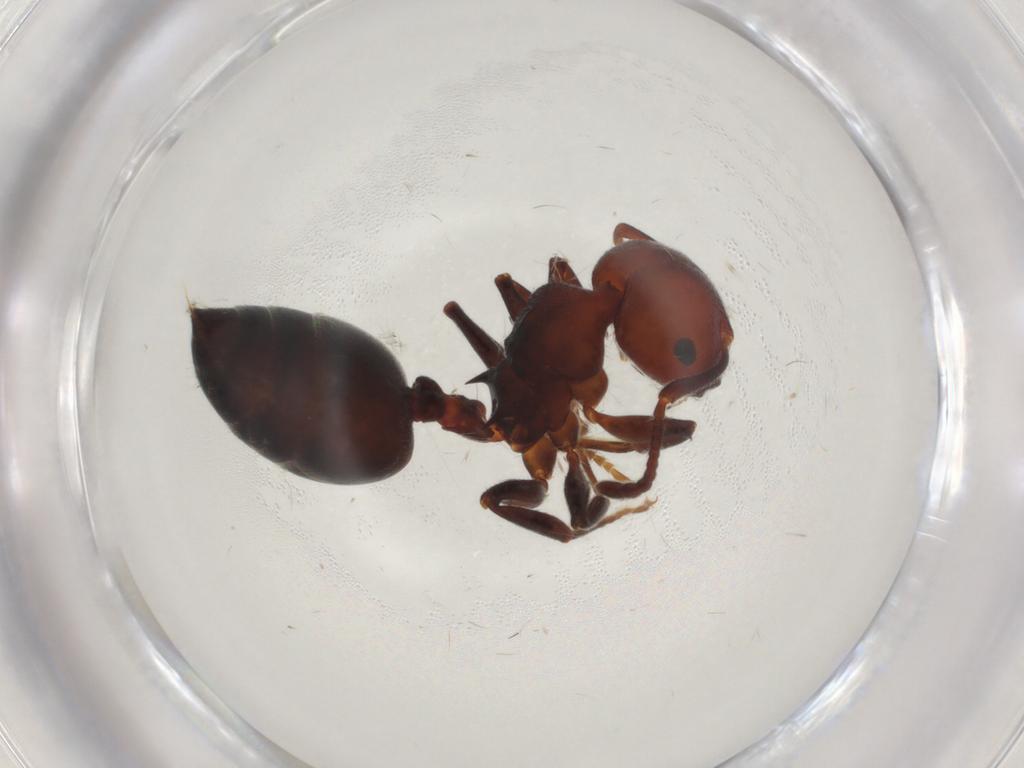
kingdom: Animalia
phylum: Arthropoda
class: Insecta
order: Hymenoptera
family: Formicidae
